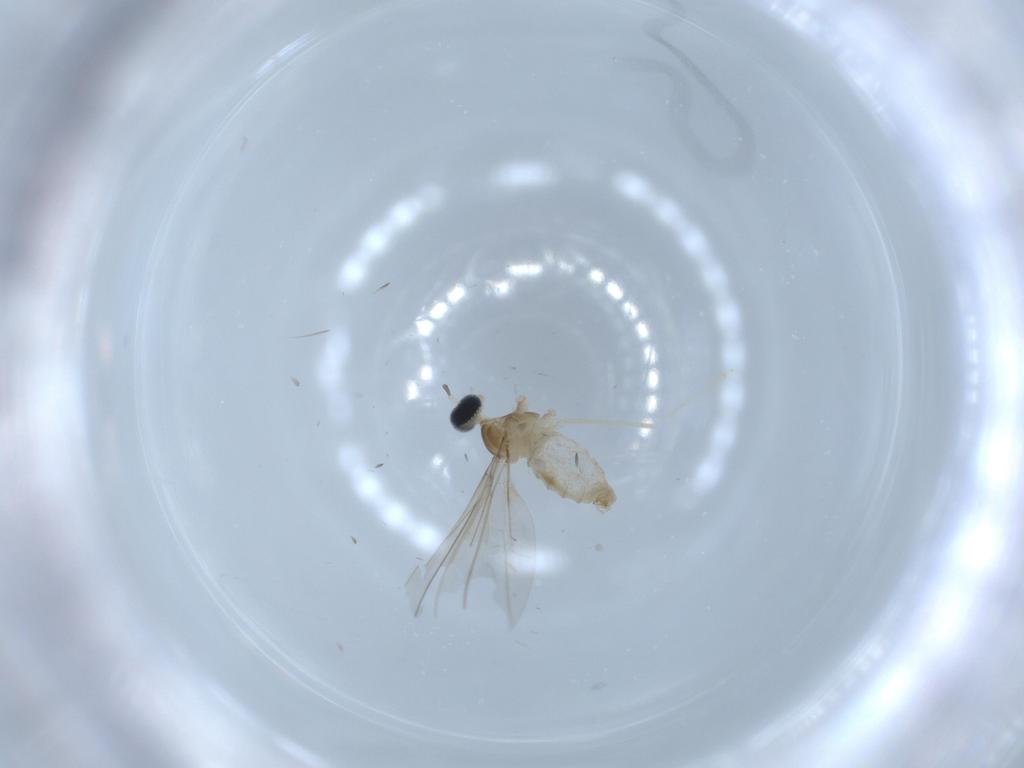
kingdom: Animalia
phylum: Arthropoda
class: Insecta
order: Diptera
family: Cecidomyiidae
